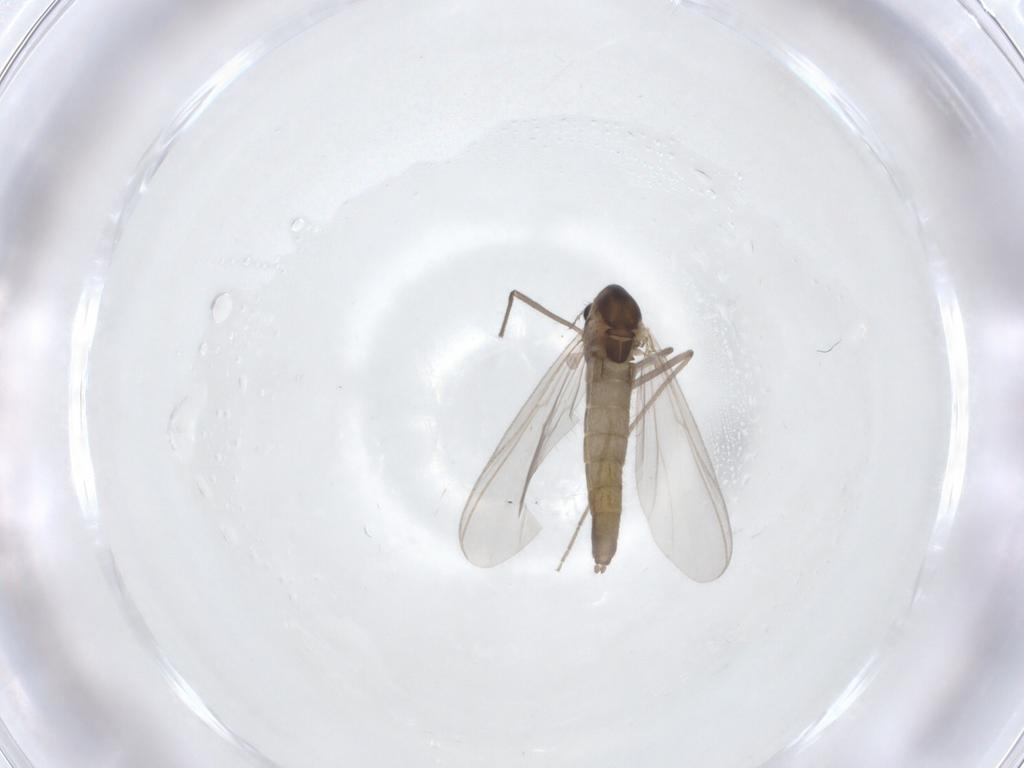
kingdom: Animalia
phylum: Arthropoda
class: Insecta
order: Diptera
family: Chironomidae
